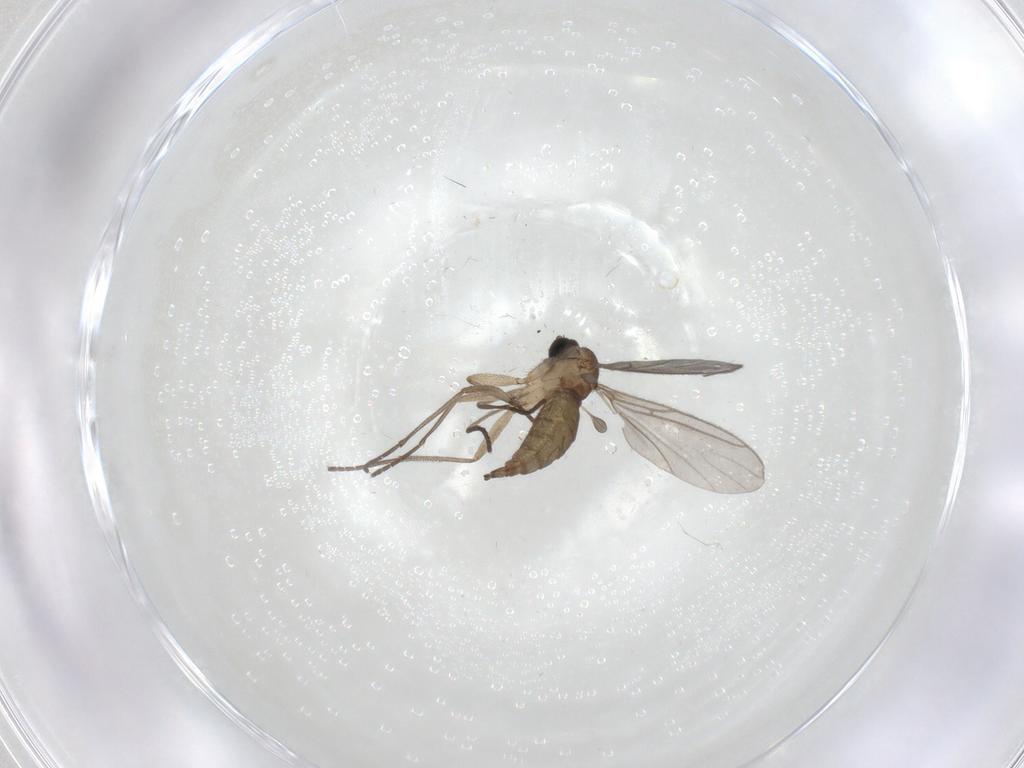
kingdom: Animalia
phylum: Arthropoda
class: Insecta
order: Diptera
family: Sciaridae
